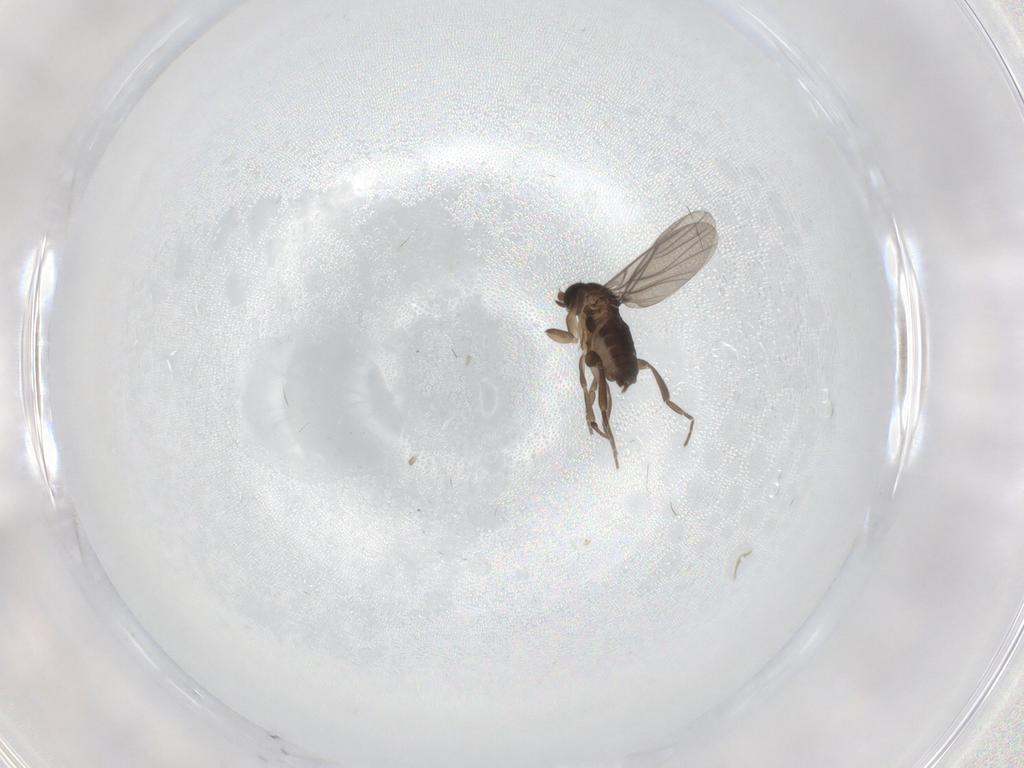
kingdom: Animalia
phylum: Arthropoda
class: Insecta
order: Diptera
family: Phoridae
